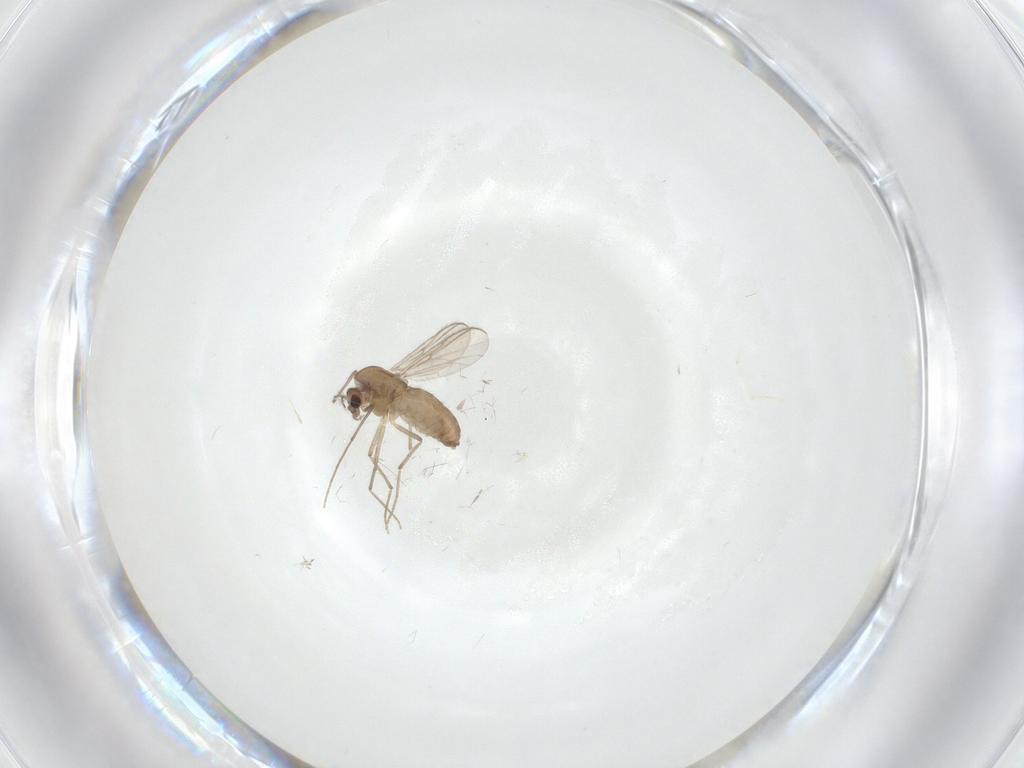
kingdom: Animalia
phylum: Arthropoda
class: Insecta
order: Diptera
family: Chironomidae
